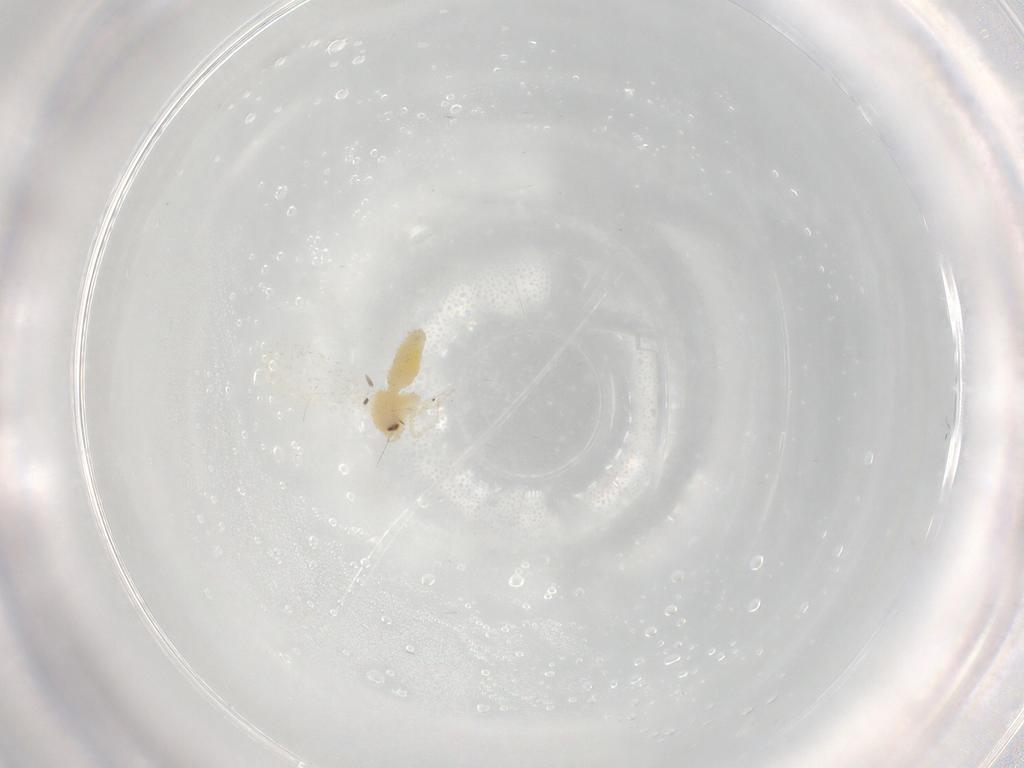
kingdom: Animalia
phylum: Arthropoda
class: Insecta
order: Hemiptera
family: Aleyrodidae
